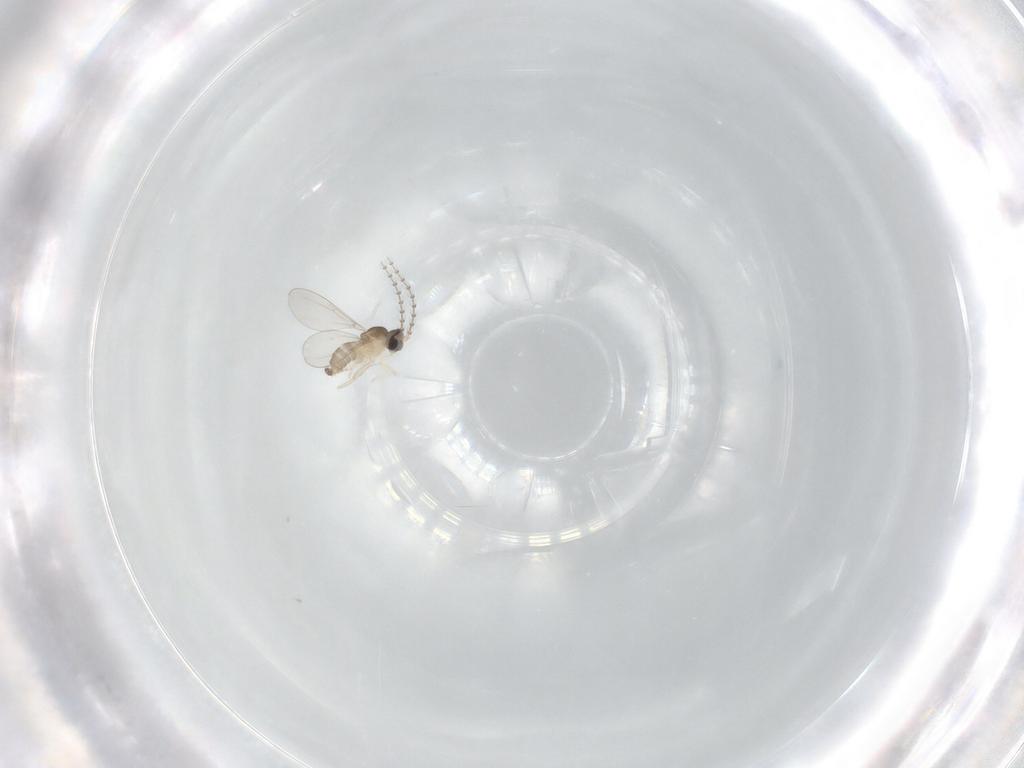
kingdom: Animalia
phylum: Arthropoda
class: Insecta
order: Diptera
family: Cecidomyiidae
